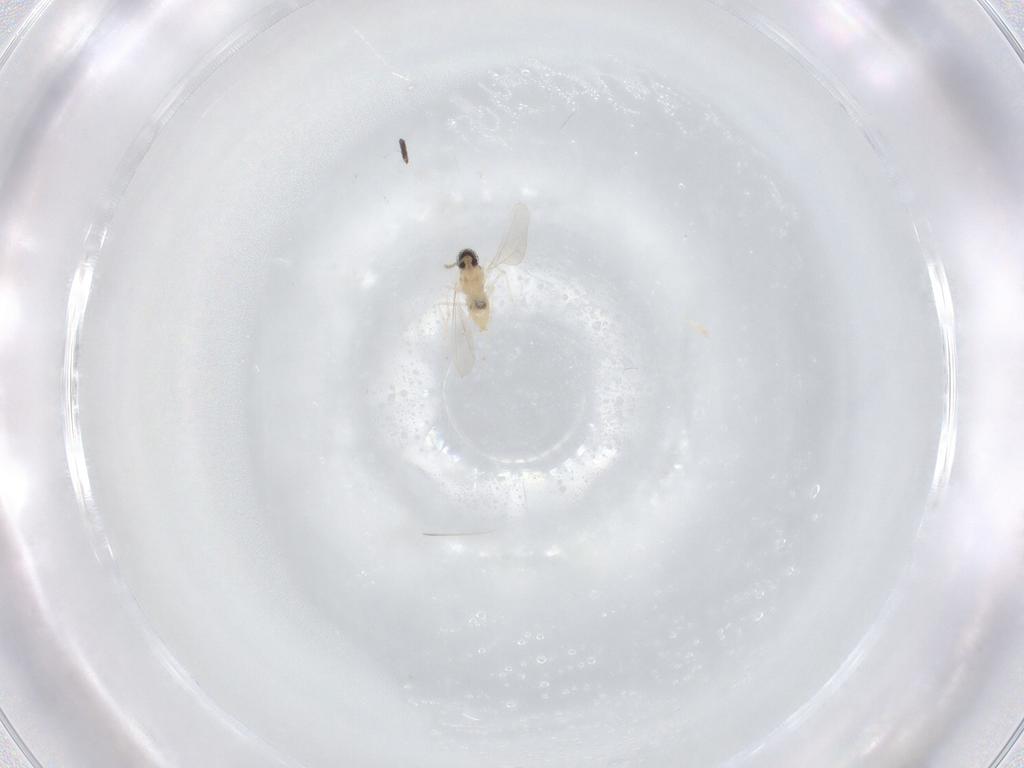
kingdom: Animalia
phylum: Arthropoda
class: Insecta
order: Diptera
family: Cecidomyiidae
